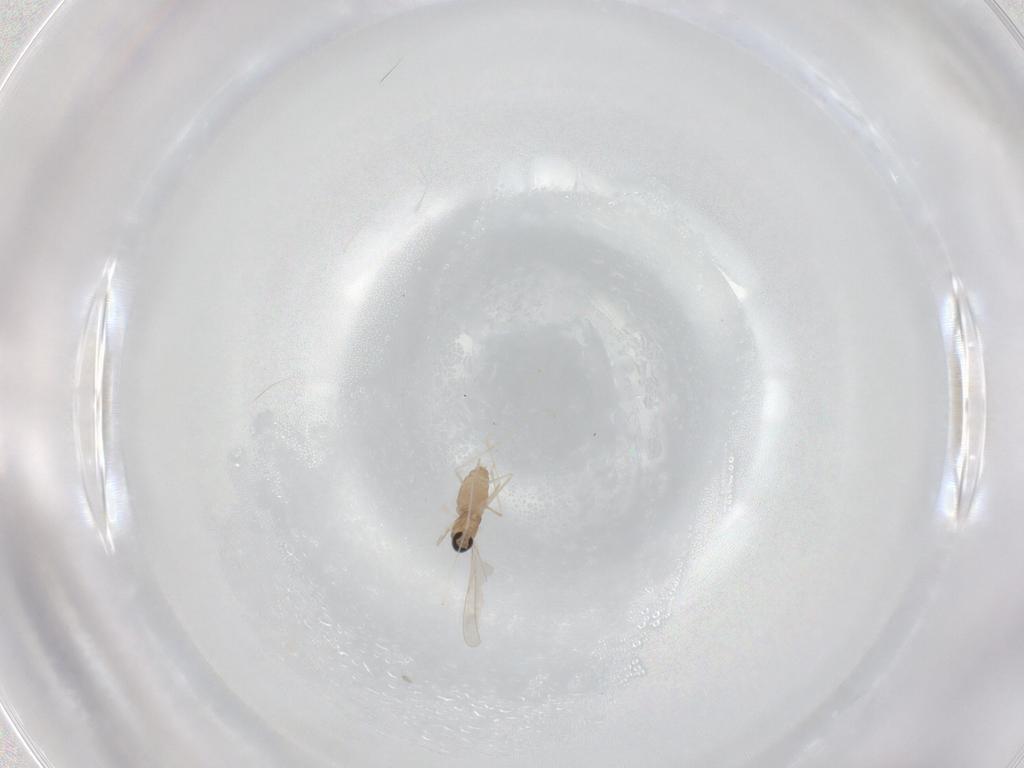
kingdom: Animalia
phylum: Arthropoda
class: Insecta
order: Diptera
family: Cecidomyiidae
